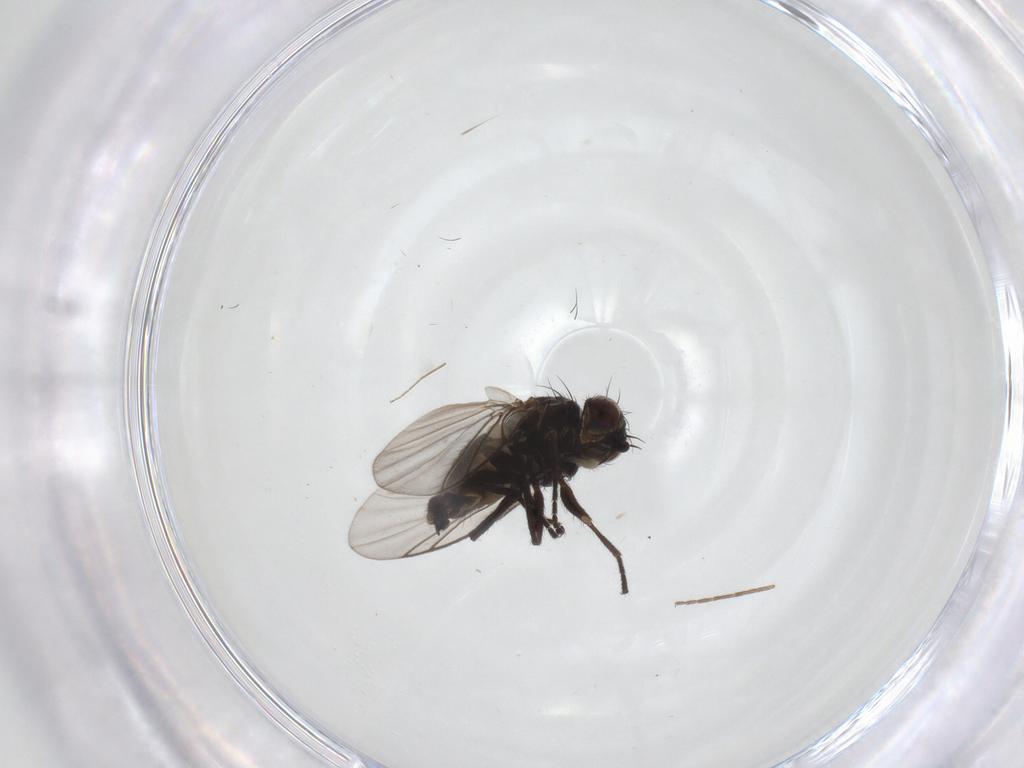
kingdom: Animalia
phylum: Arthropoda
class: Insecta
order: Diptera
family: Agromyzidae
